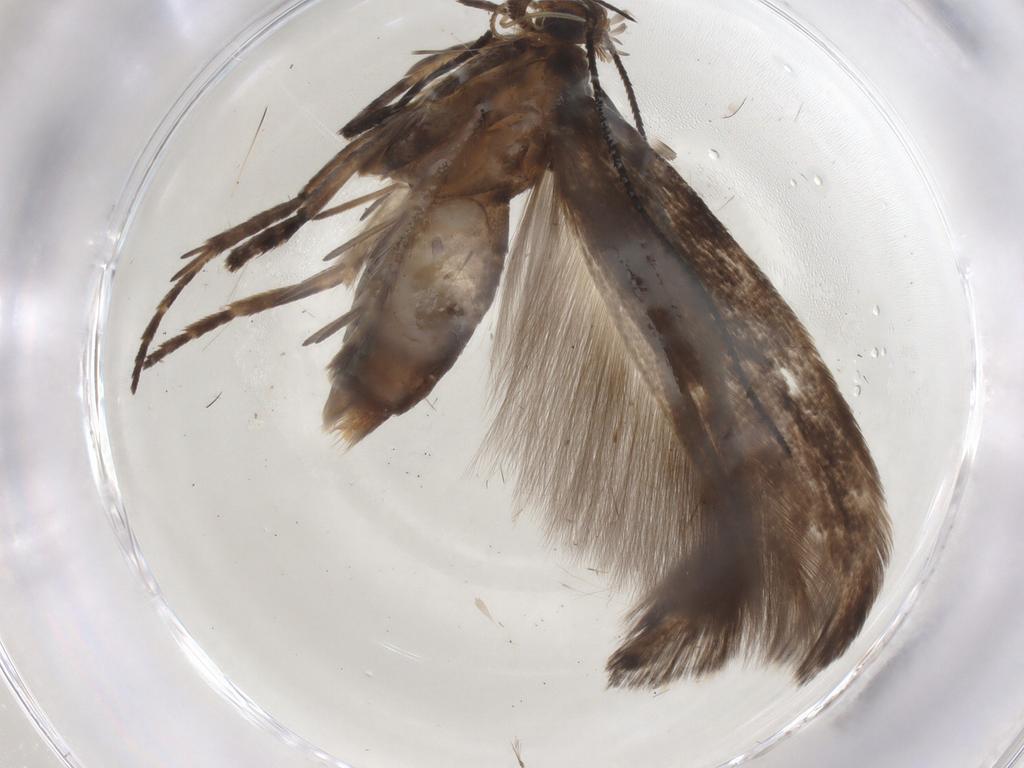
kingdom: Animalia
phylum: Arthropoda
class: Insecta
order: Lepidoptera
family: Gelechiidae
